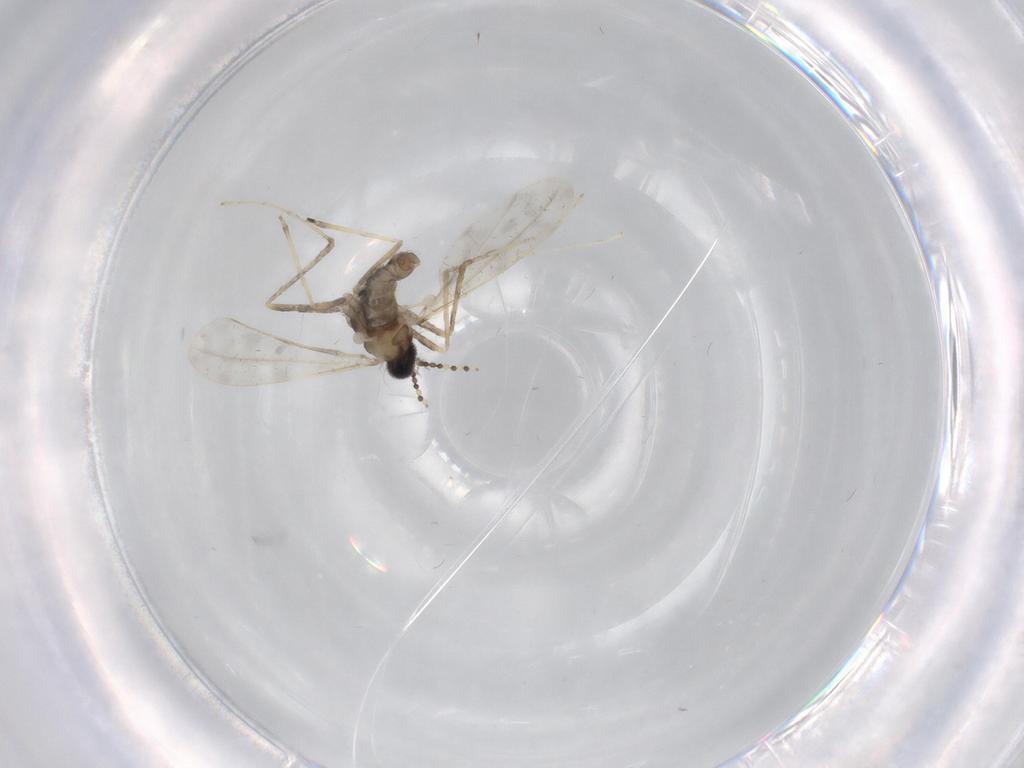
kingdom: Animalia
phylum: Arthropoda
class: Insecta
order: Diptera
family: Cecidomyiidae
